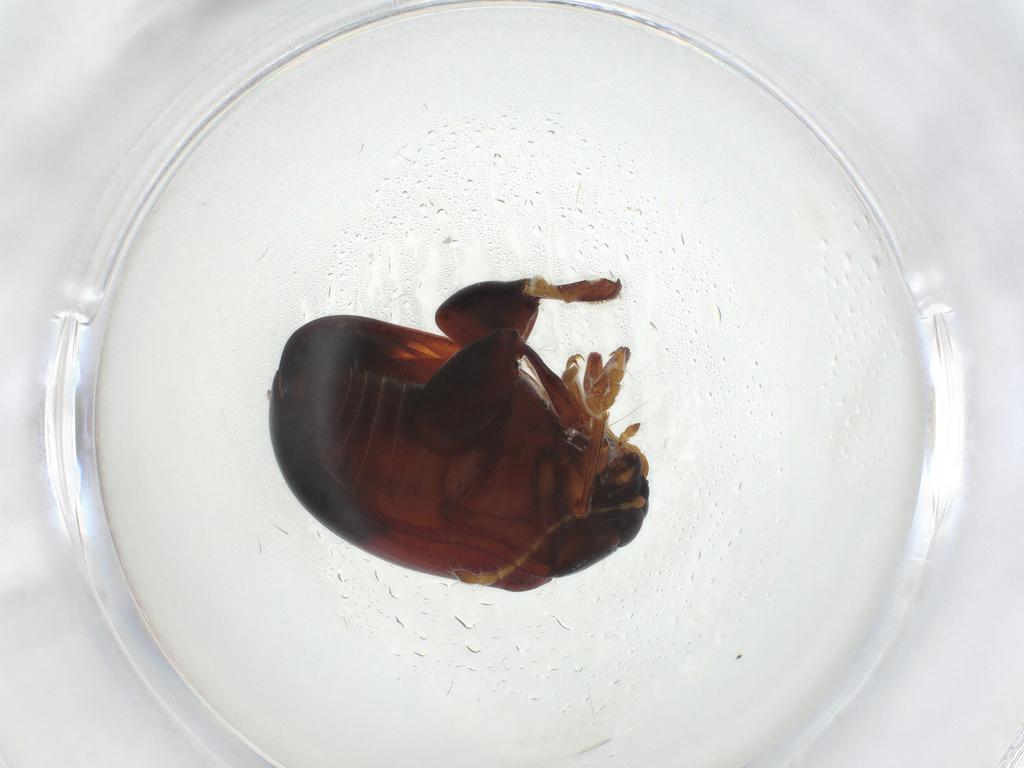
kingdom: Animalia
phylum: Arthropoda
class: Insecta
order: Coleoptera
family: Chrysomelidae
